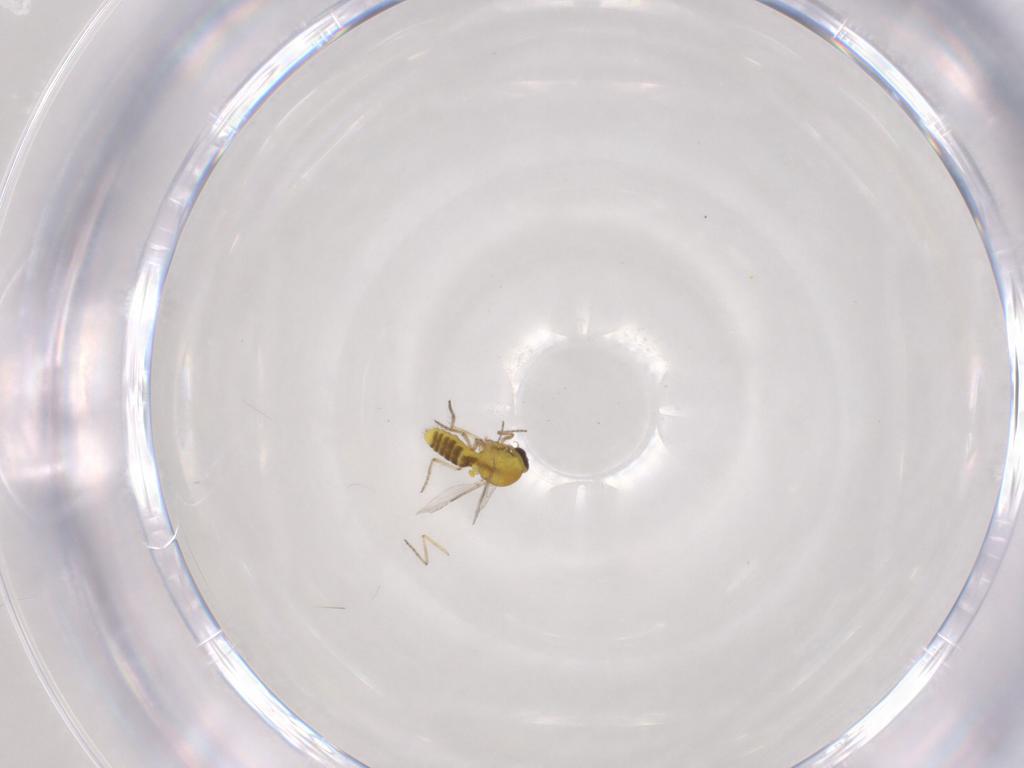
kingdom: Animalia
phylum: Arthropoda
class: Insecta
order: Diptera
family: Ceratopogonidae
